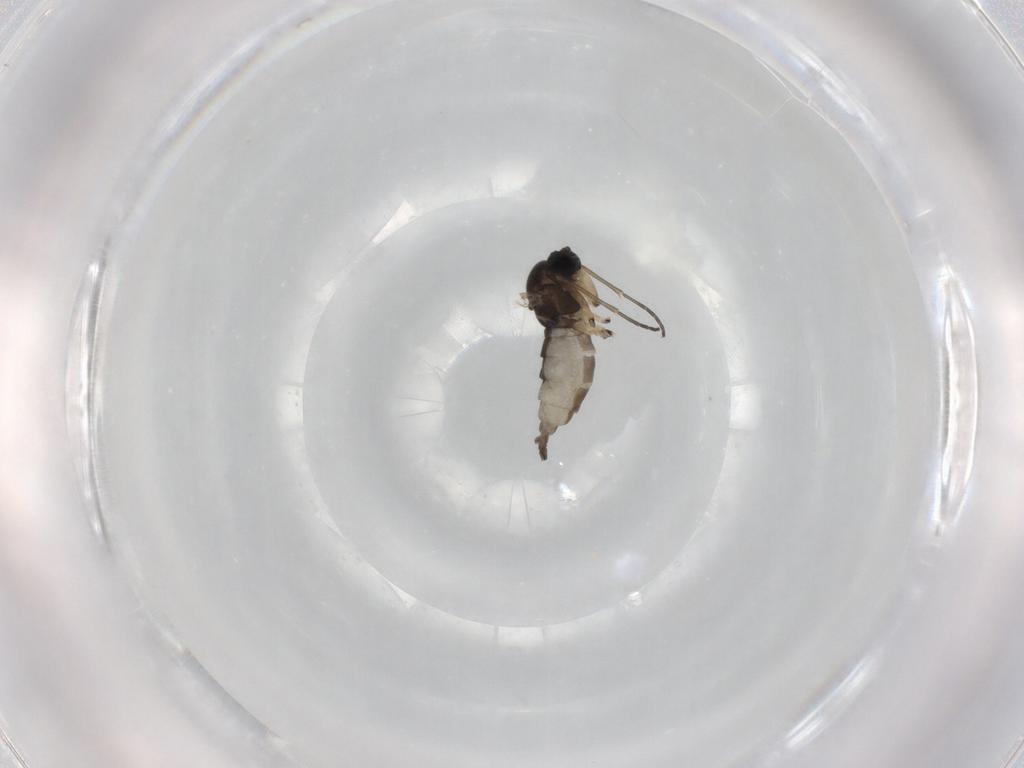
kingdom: Animalia
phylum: Arthropoda
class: Insecta
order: Diptera
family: Sciaridae
